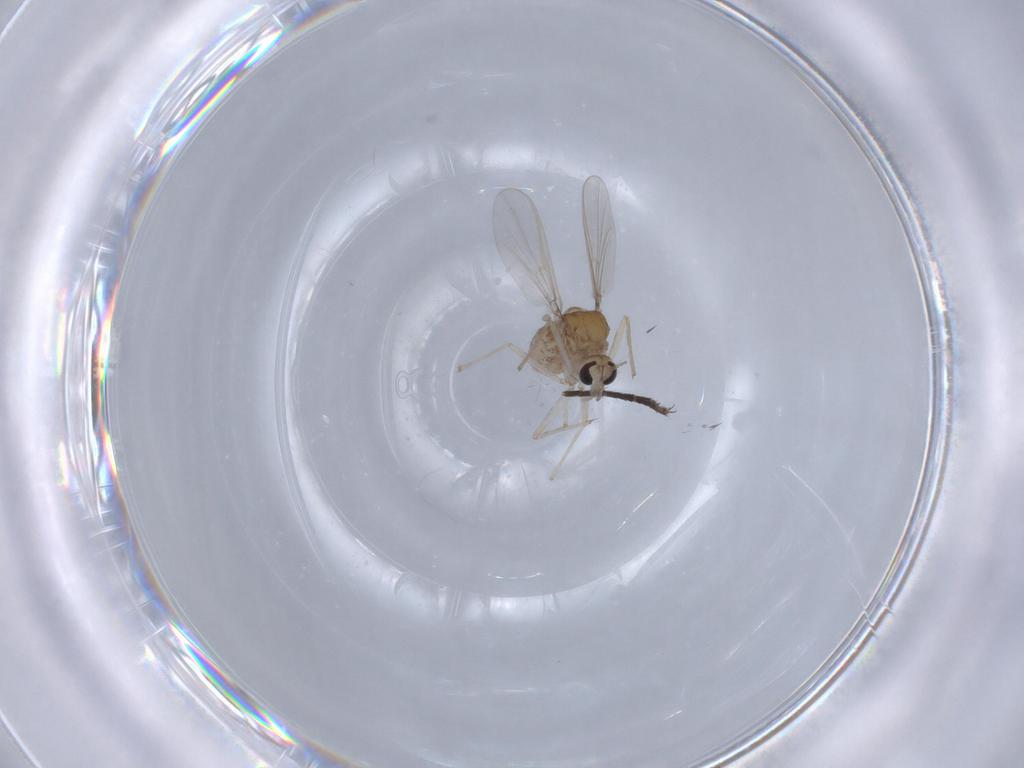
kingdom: Animalia
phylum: Arthropoda
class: Insecta
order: Diptera
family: Chironomidae
